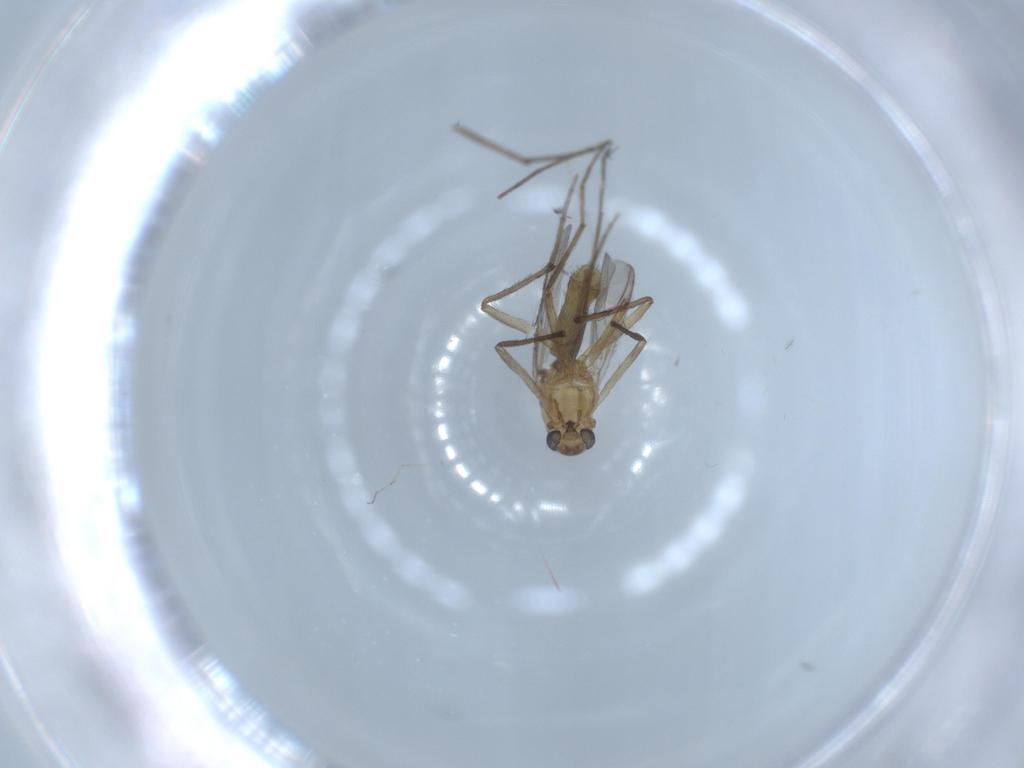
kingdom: Animalia
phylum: Arthropoda
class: Insecta
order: Diptera
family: Chironomidae
